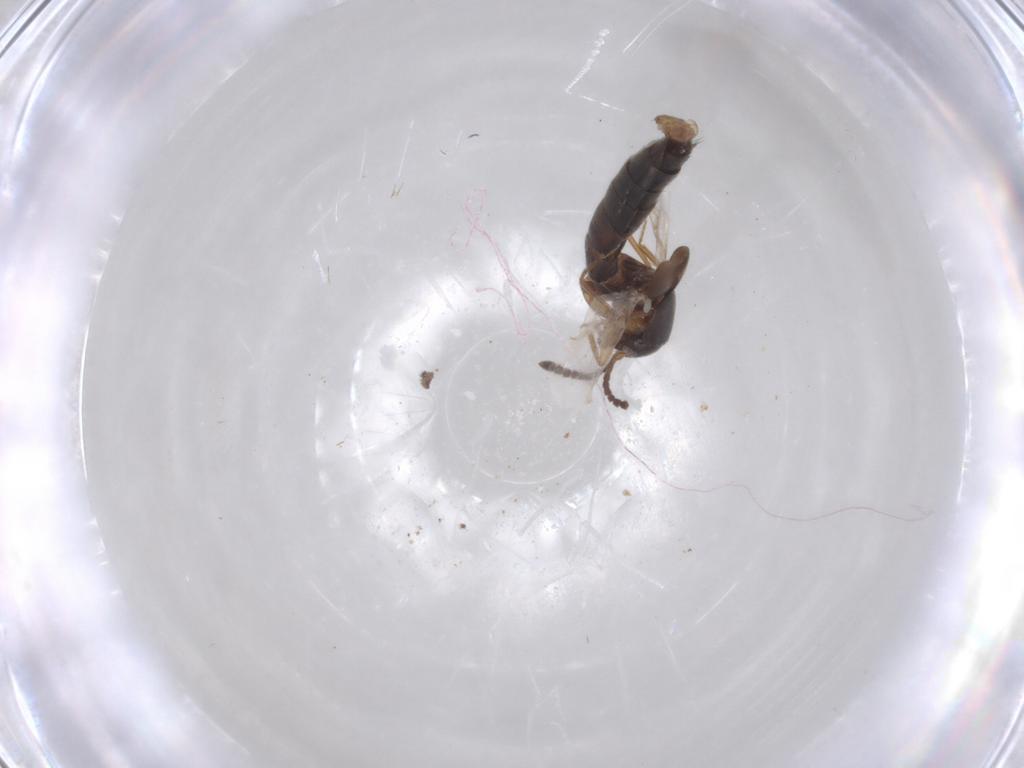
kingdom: Animalia
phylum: Arthropoda
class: Insecta
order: Coleoptera
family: Staphylinidae
